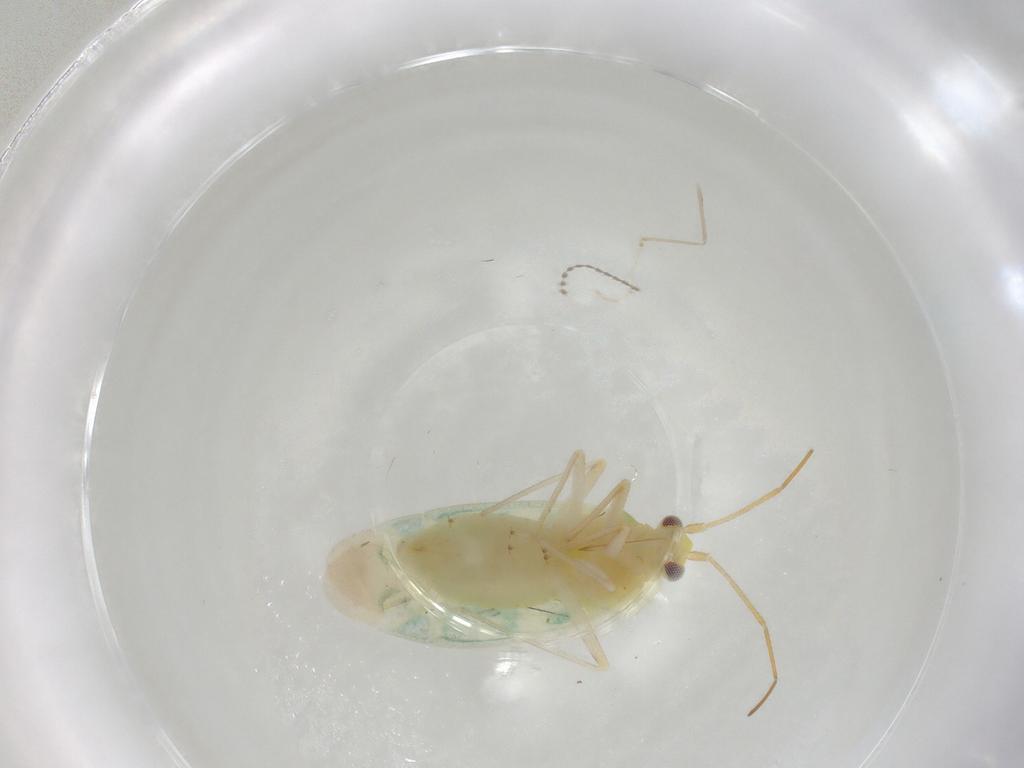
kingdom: Animalia
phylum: Arthropoda
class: Insecta
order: Hemiptera
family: Miridae
